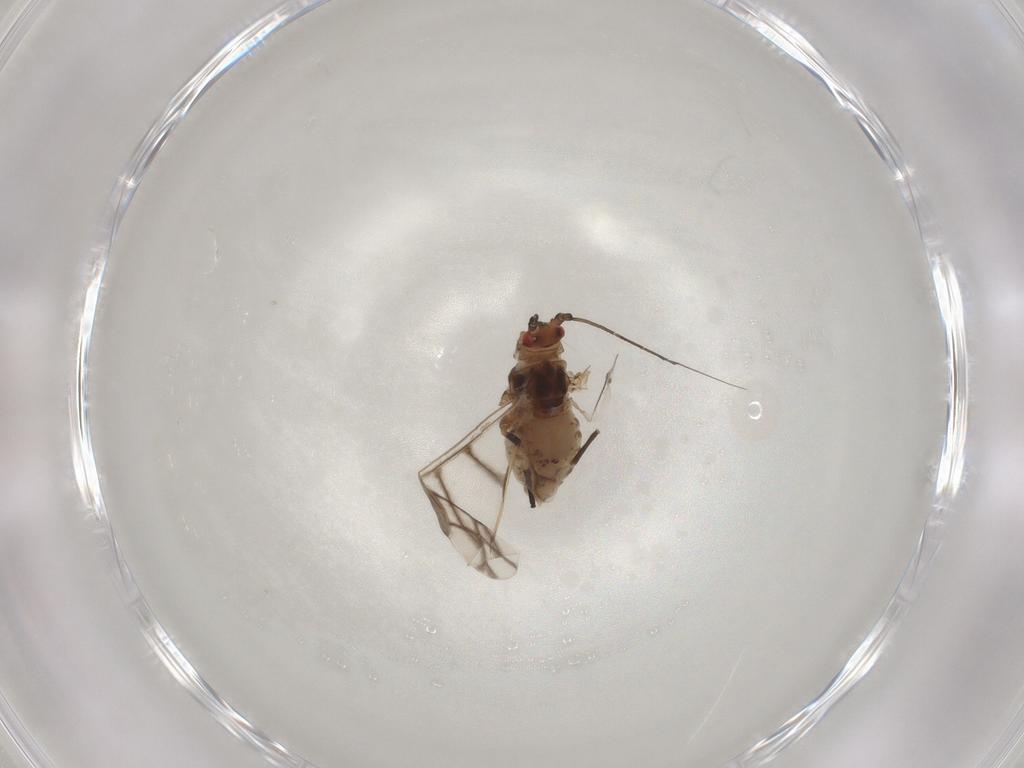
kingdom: Animalia
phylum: Arthropoda
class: Insecta
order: Hemiptera
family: Aphididae
